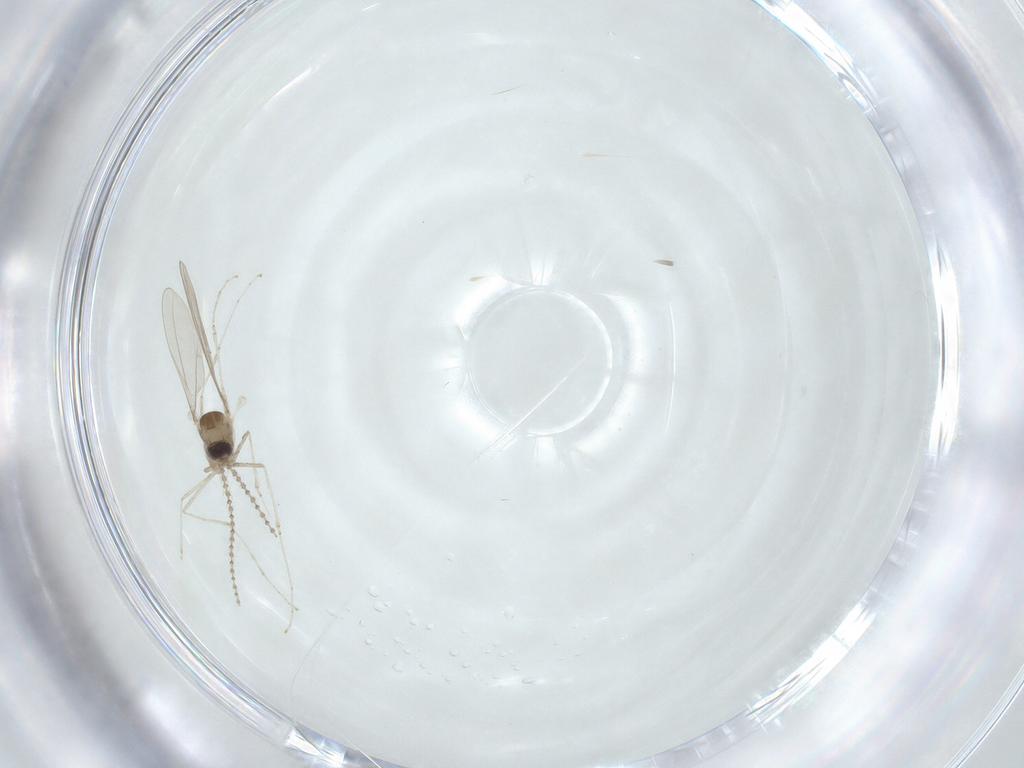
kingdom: Animalia
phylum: Arthropoda
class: Insecta
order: Diptera
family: Cecidomyiidae
